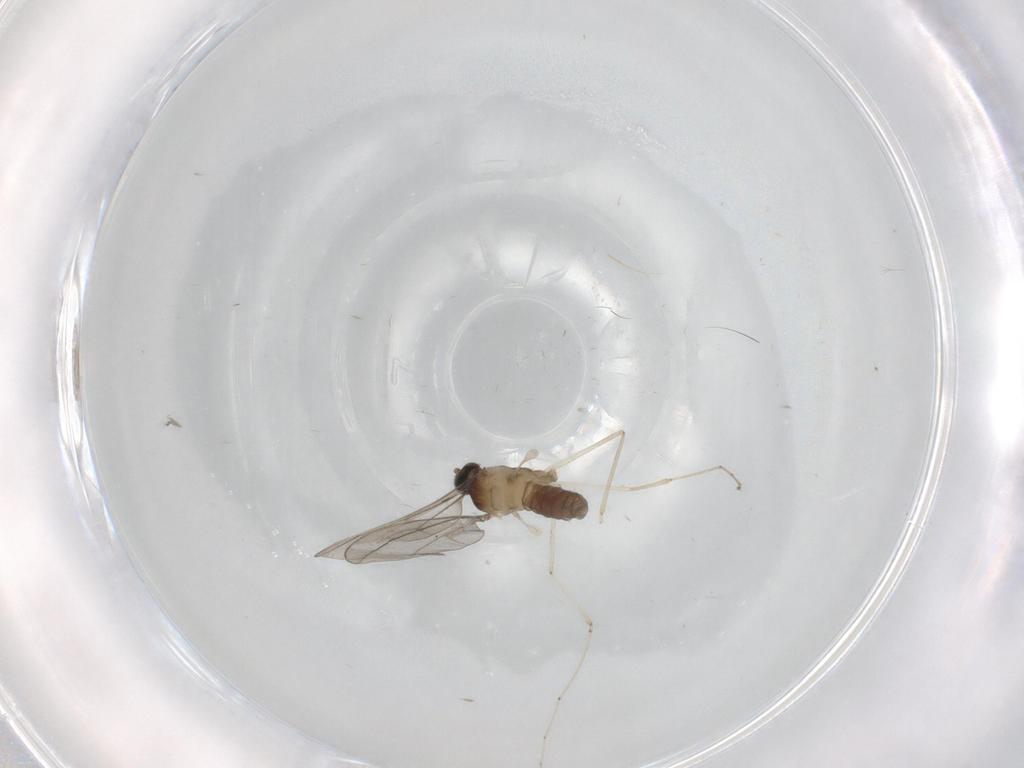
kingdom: Animalia
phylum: Arthropoda
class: Insecta
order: Diptera
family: Cecidomyiidae
